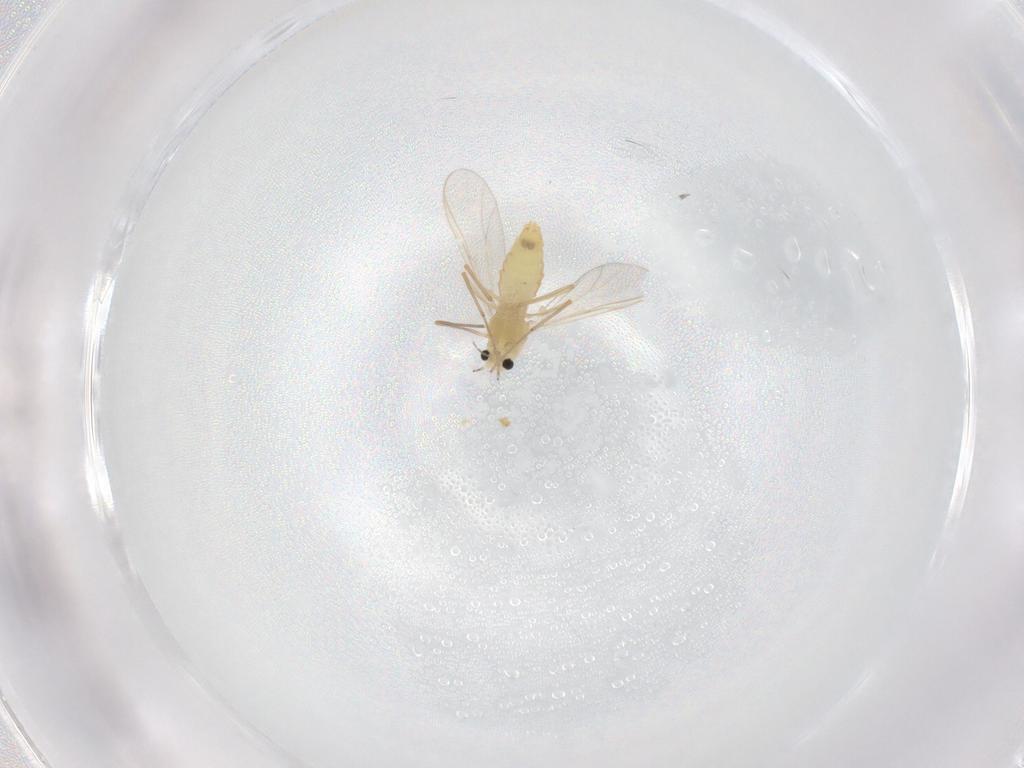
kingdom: Animalia
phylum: Arthropoda
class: Insecta
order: Diptera
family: Chironomidae
